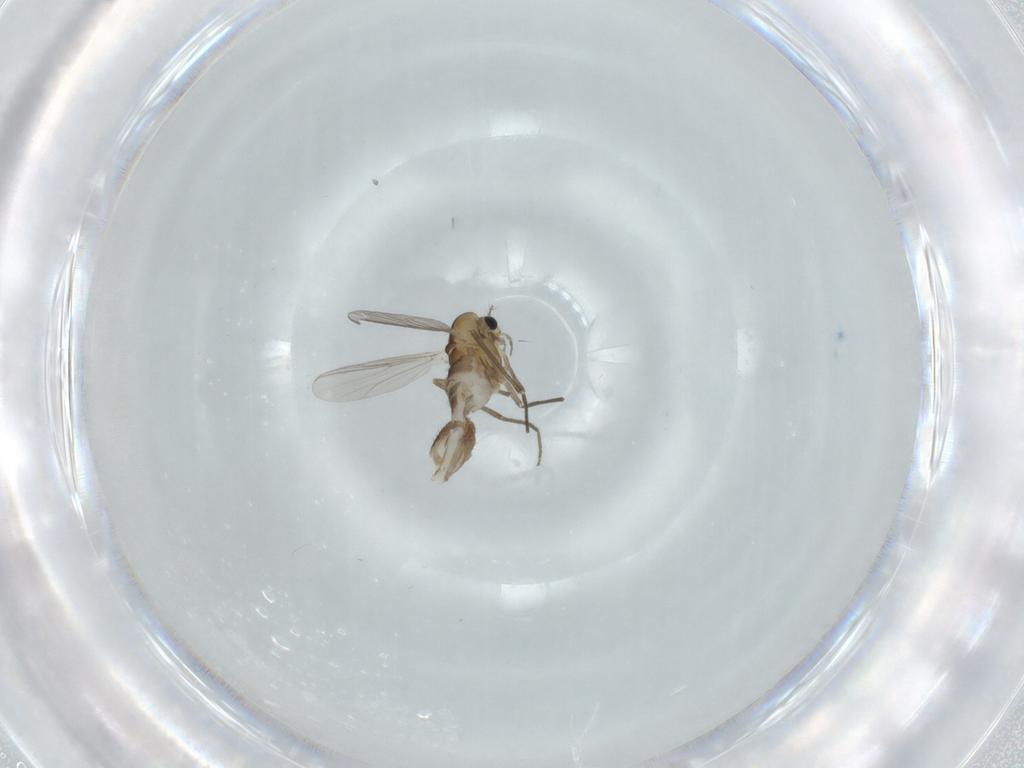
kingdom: Animalia
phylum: Arthropoda
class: Insecta
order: Diptera
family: Chironomidae
